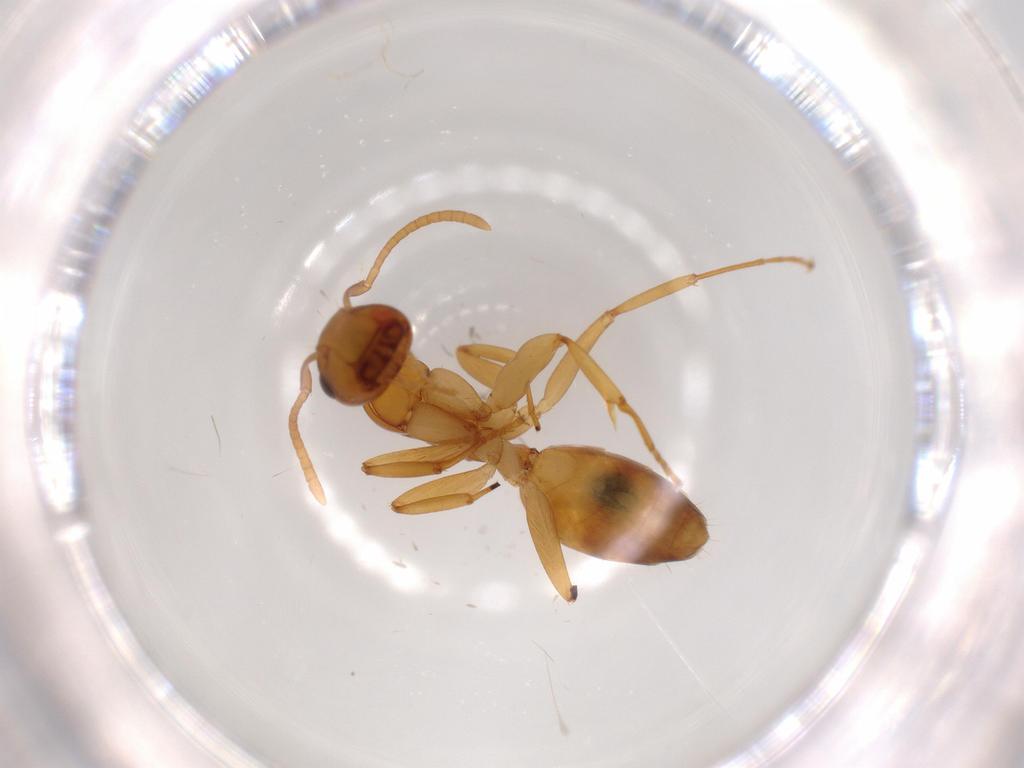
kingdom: Animalia
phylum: Arthropoda
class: Insecta
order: Hymenoptera
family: Formicidae
